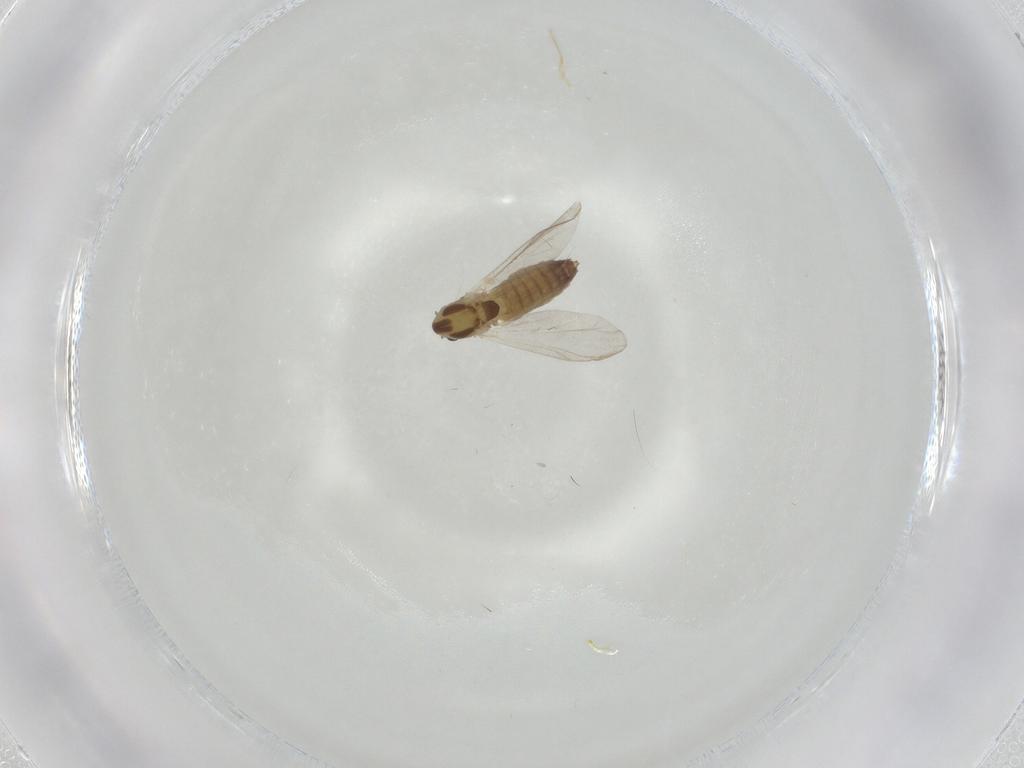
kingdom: Animalia
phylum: Arthropoda
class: Insecta
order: Diptera
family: Chironomidae
